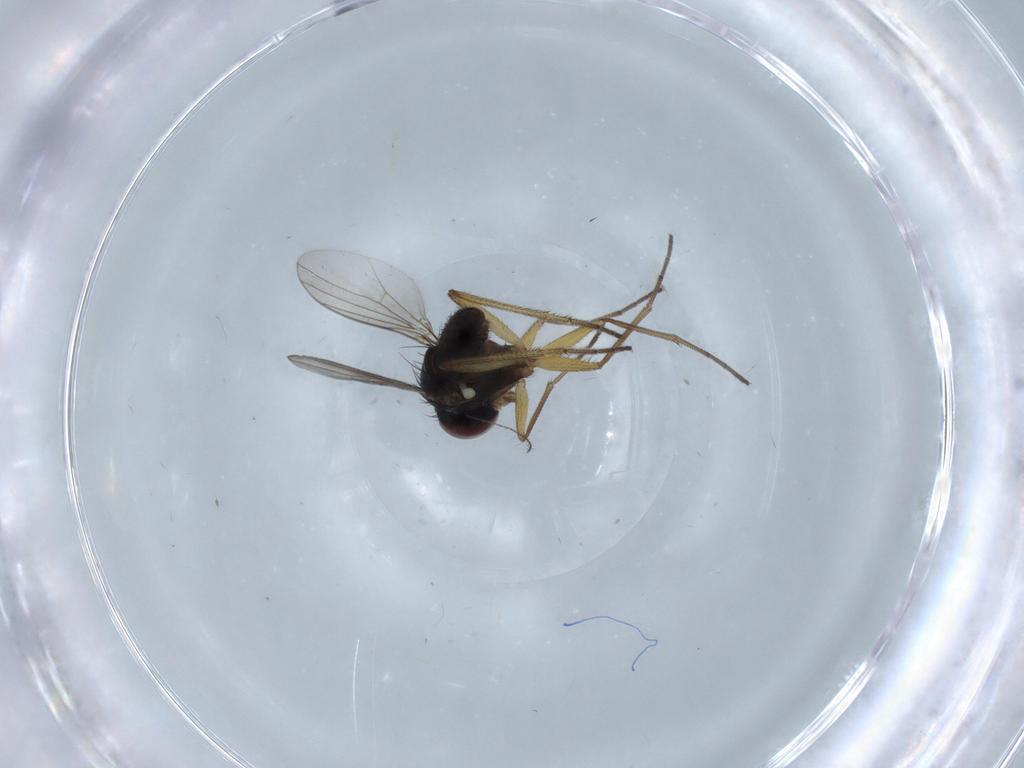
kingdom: Animalia
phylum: Arthropoda
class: Insecta
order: Diptera
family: Dolichopodidae
